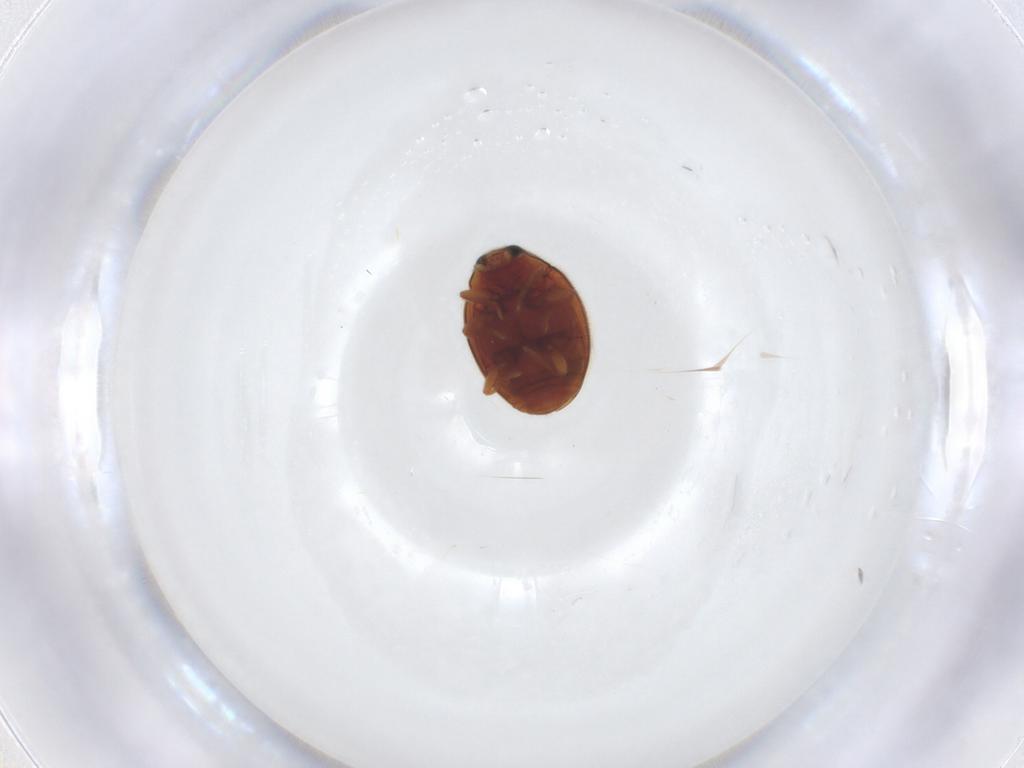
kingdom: Animalia
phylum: Arthropoda
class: Insecta
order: Coleoptera
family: Coccinellidae
